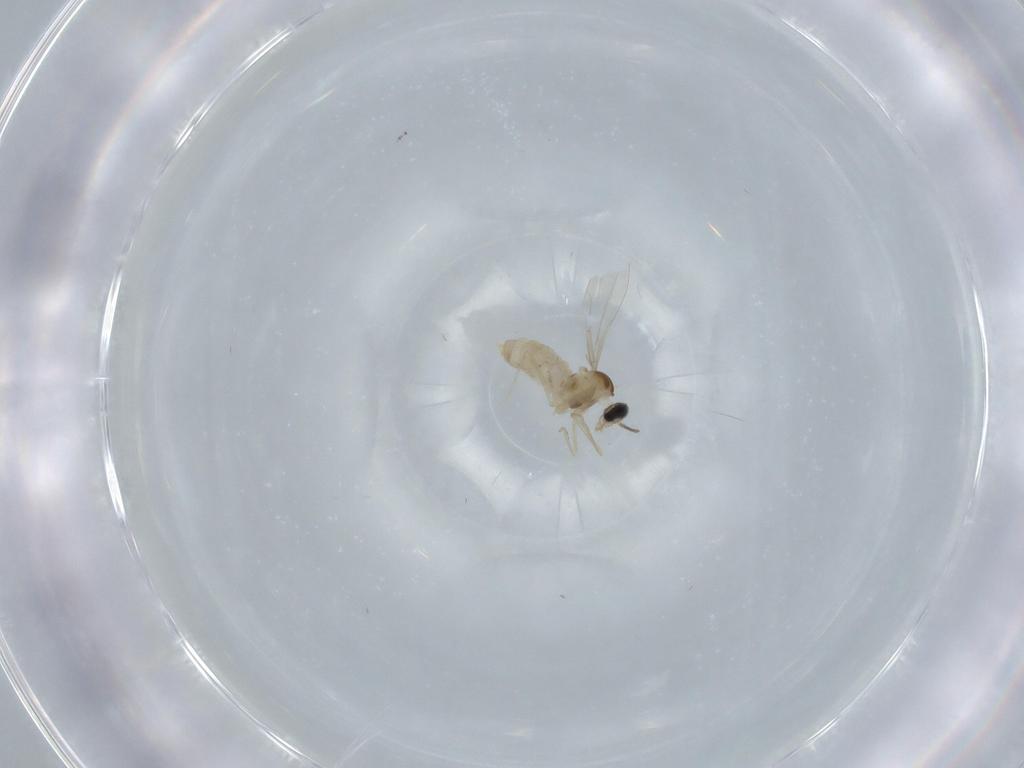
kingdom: Animalia
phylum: Arthropoda
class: Insecta
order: Diptera
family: Cecidomyiidae
